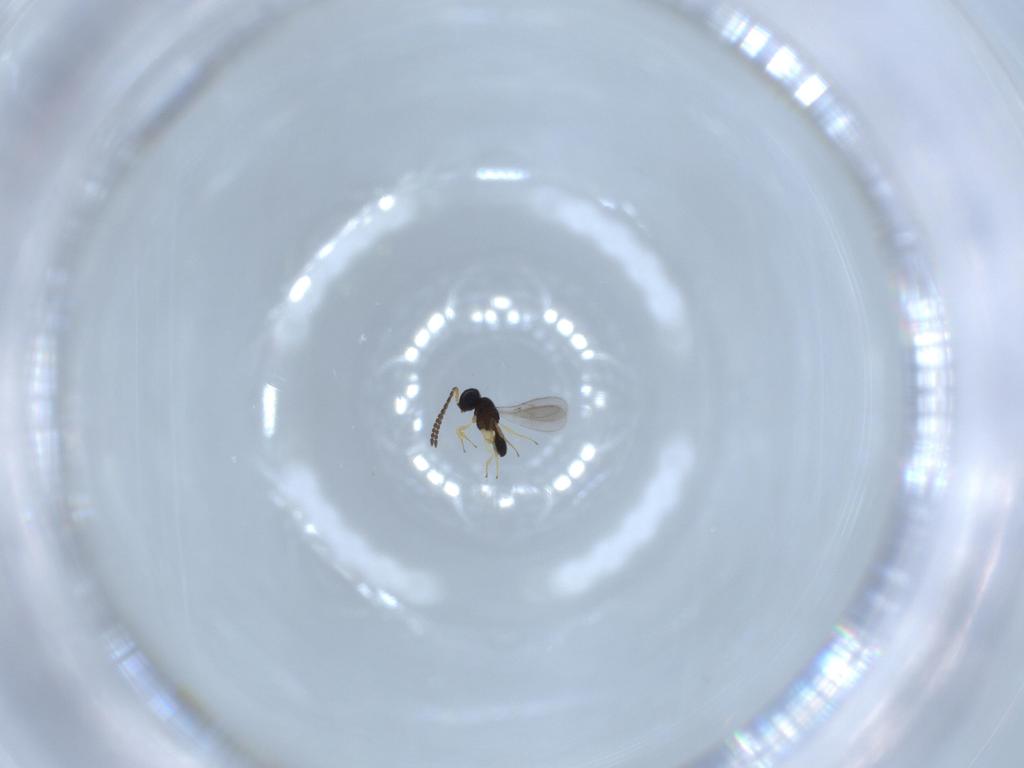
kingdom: Animalia
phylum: Arthropoda
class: Insecta
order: Hymenoptera
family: Scelionidae
